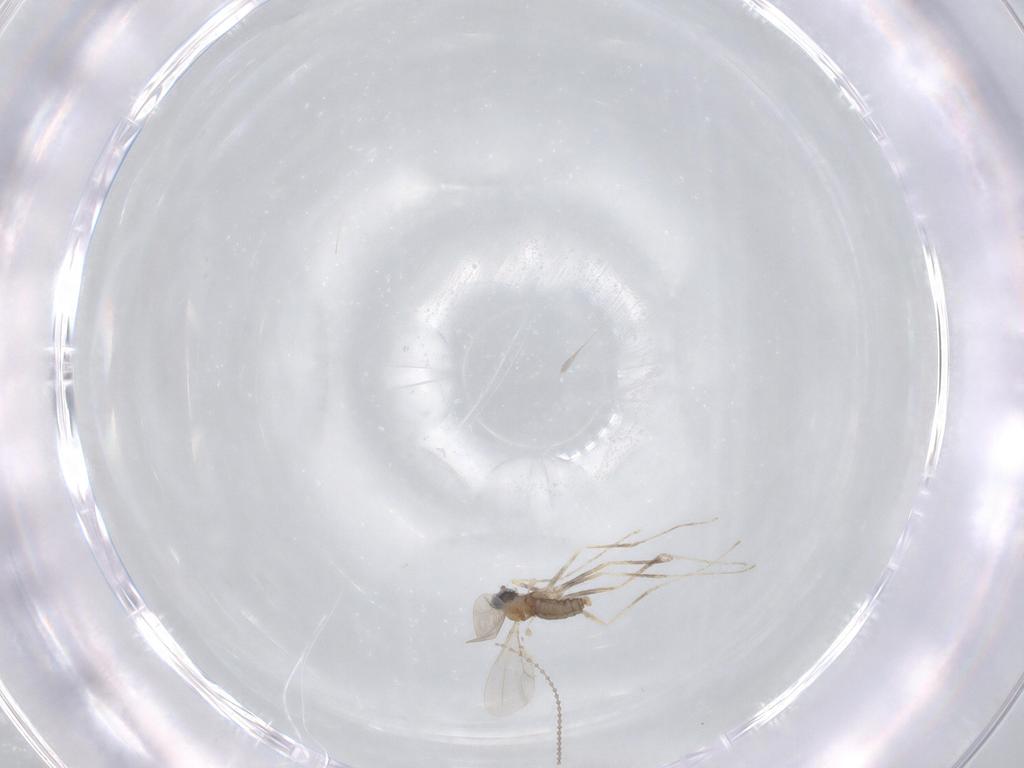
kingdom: Animalia
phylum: Arthropoda
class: Insecta
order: Diptera
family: Cecidomyiidae
